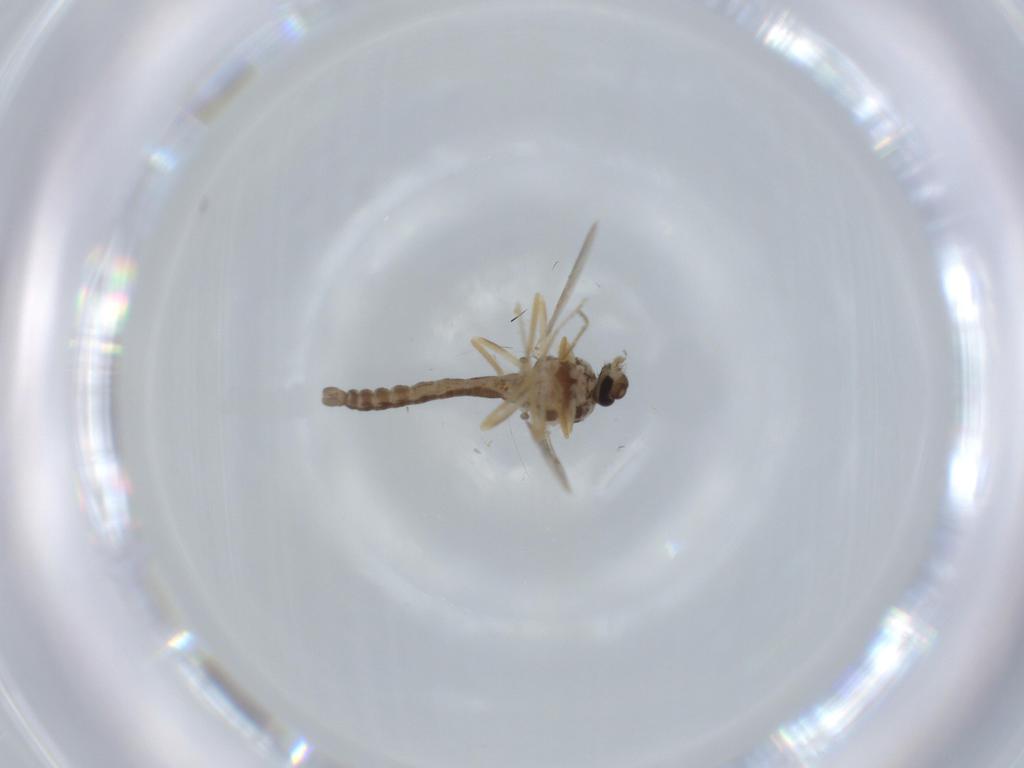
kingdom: Animalia
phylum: Arthropoda
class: Insecta
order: Diptera
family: Ceratopogonidae
